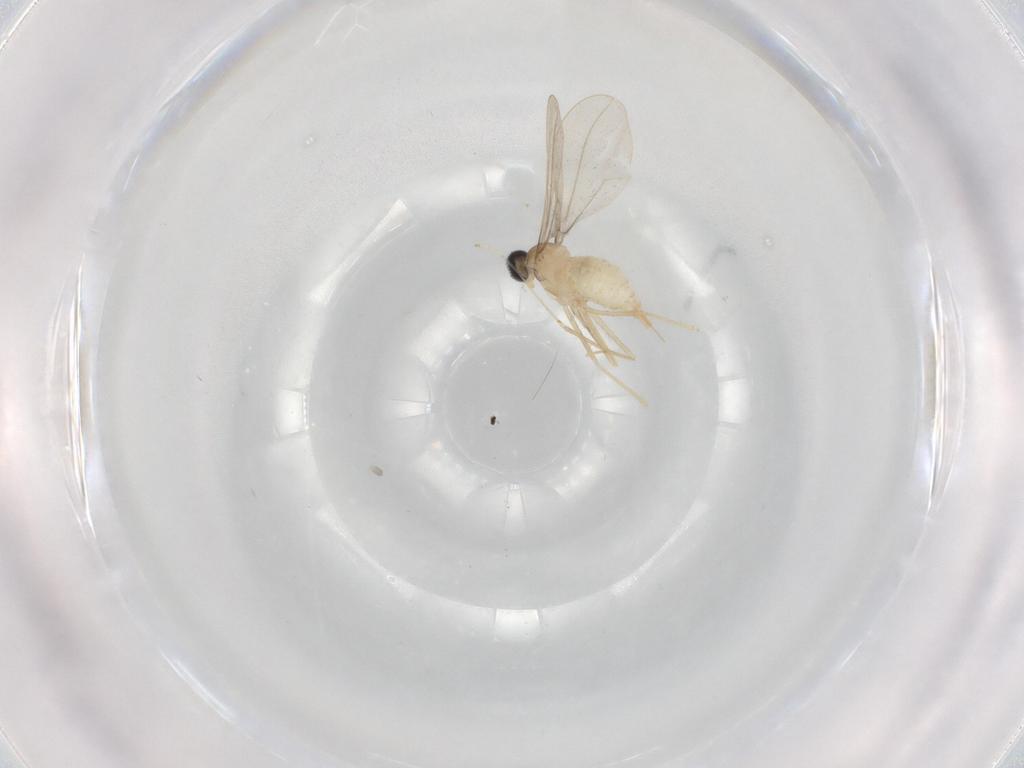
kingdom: Animalia
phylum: Arthropoda
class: Insecta
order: Diptera
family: Cecidomyiidae
